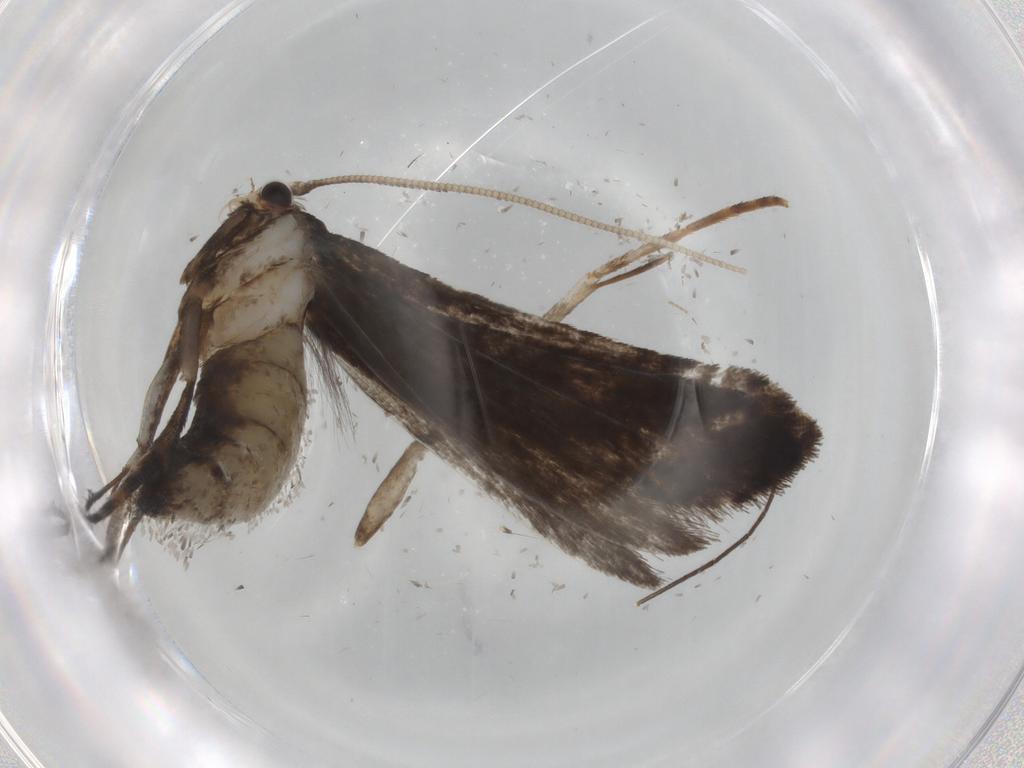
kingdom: Animalia
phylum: Arthropoda
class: Insecta
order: Lepidoptera
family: Tineidae
